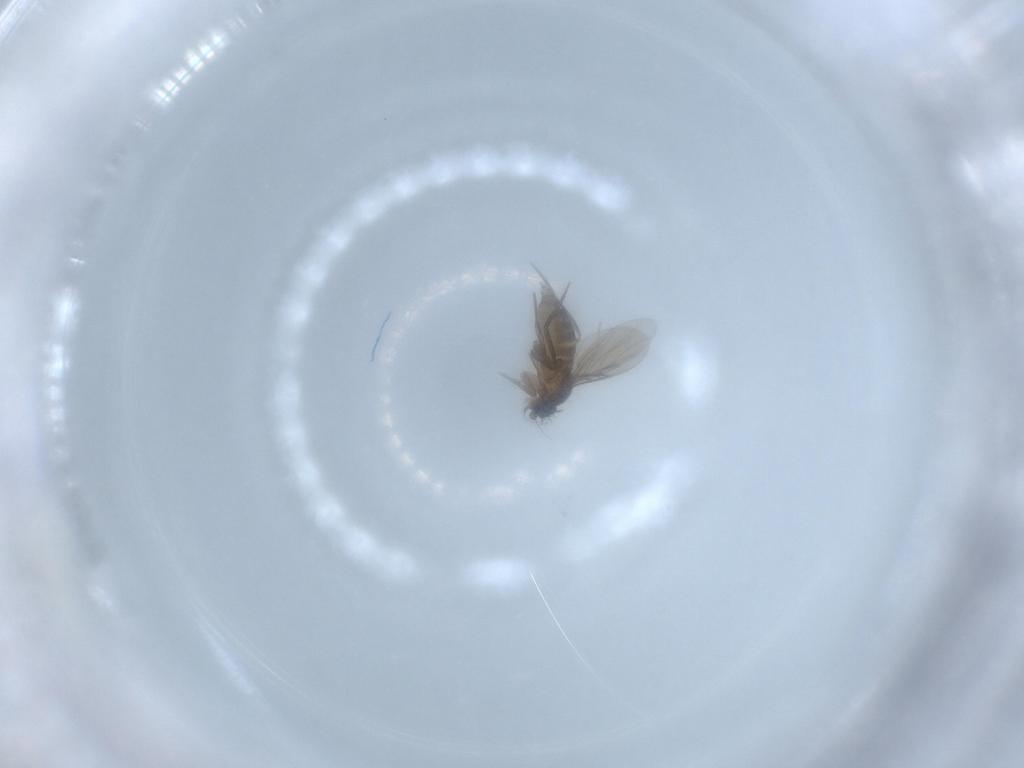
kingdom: Animalia
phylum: Arthropoda
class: Insecta
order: Diptera
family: Phoridae
